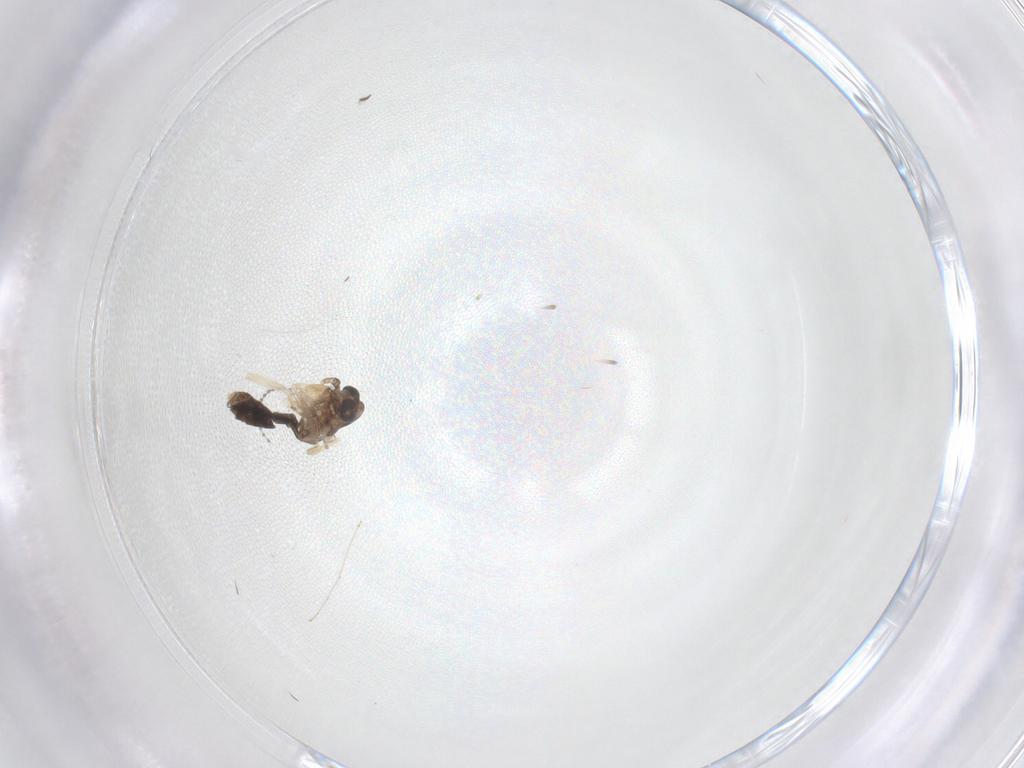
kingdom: Animalia
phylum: Arthropoda
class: Insecta
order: Diptera
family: Chironomidae
